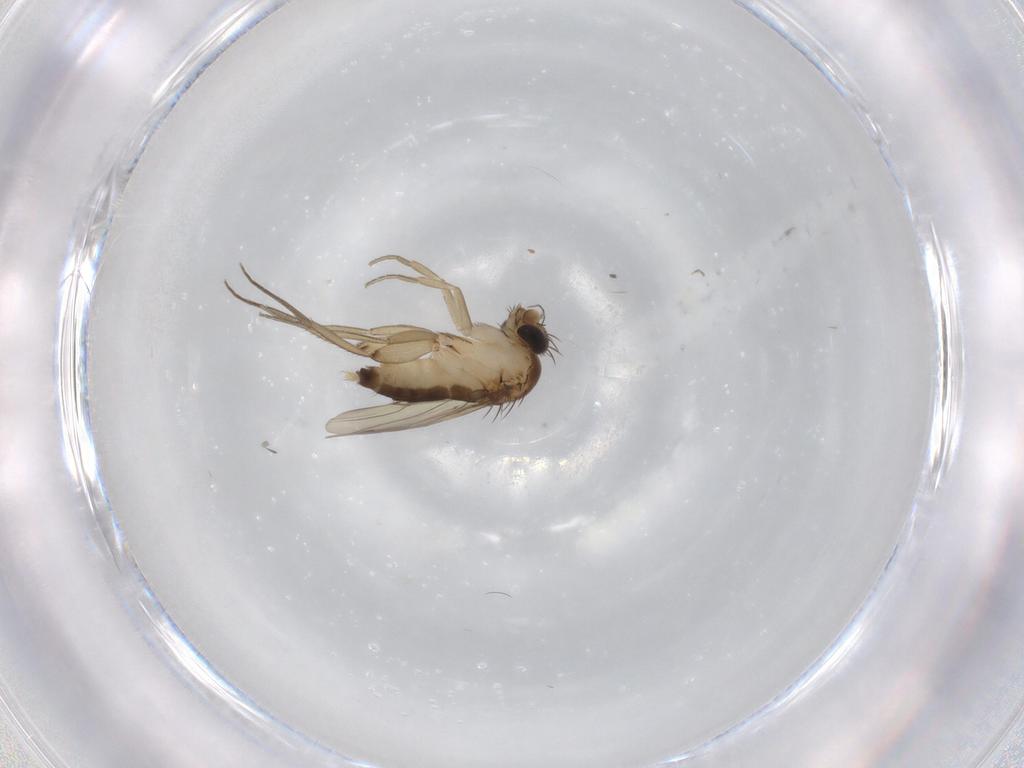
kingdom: Animalia
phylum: Arthropoda
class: Insecta
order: Diptera
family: Phoridae
